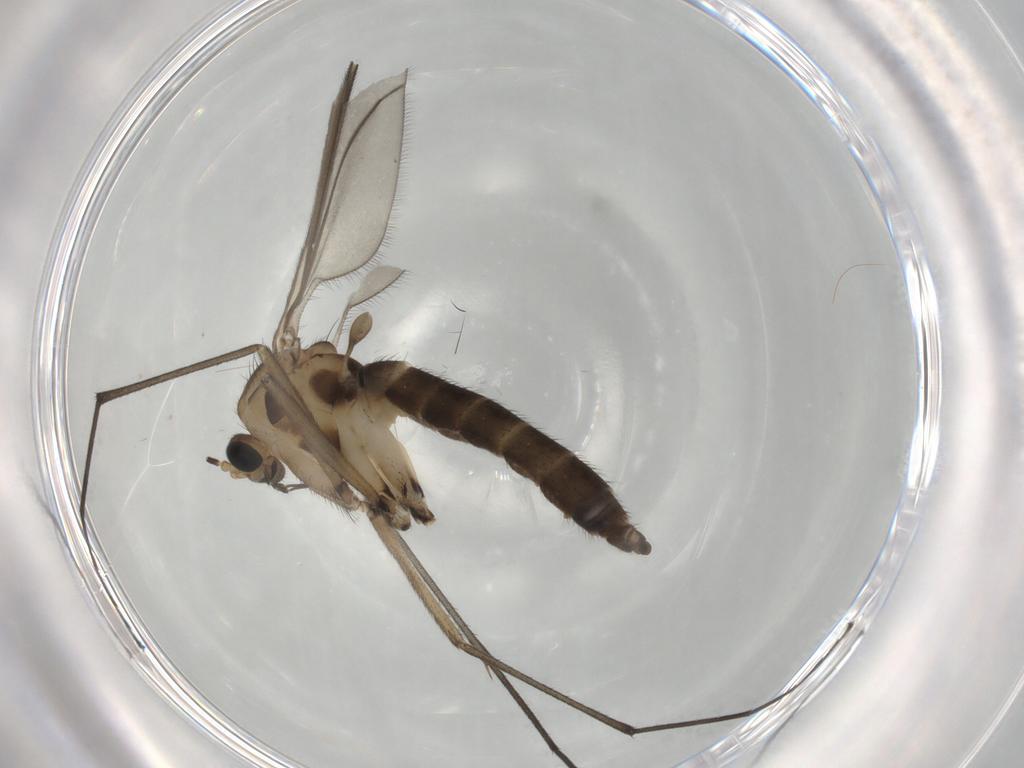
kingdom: Animalia
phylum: Arthropoda
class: Insecta
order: Diptera
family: Sciaridae
